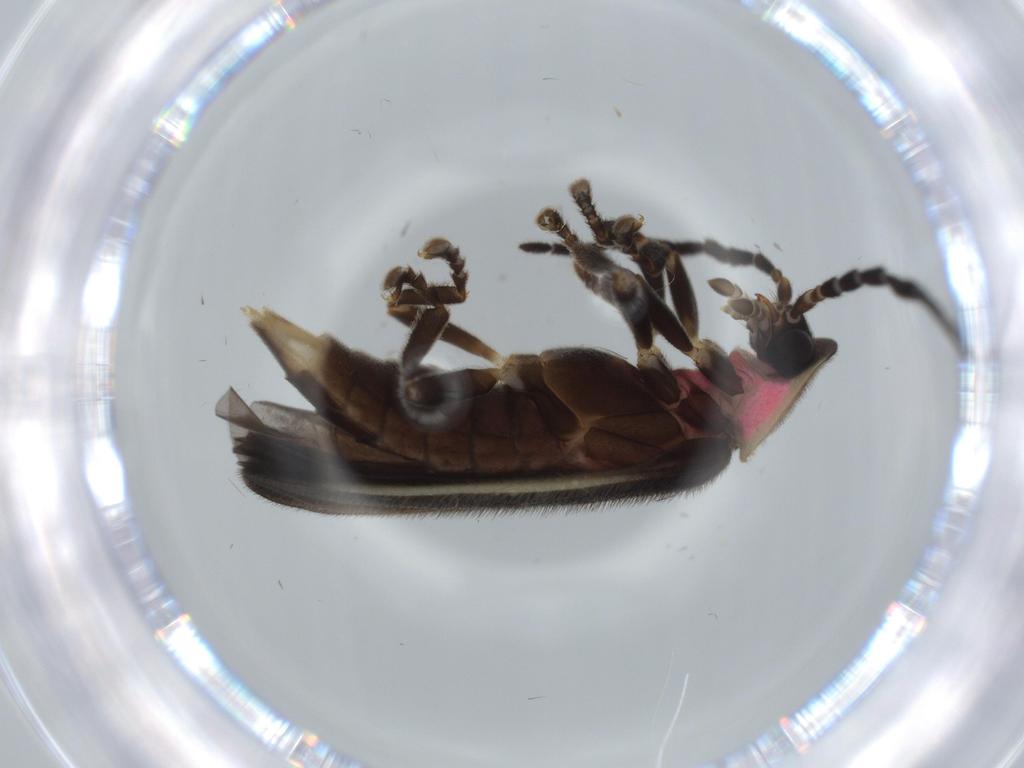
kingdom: Animalia
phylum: Arthropoda
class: Insecta
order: Coleoptera
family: Lampyridae
